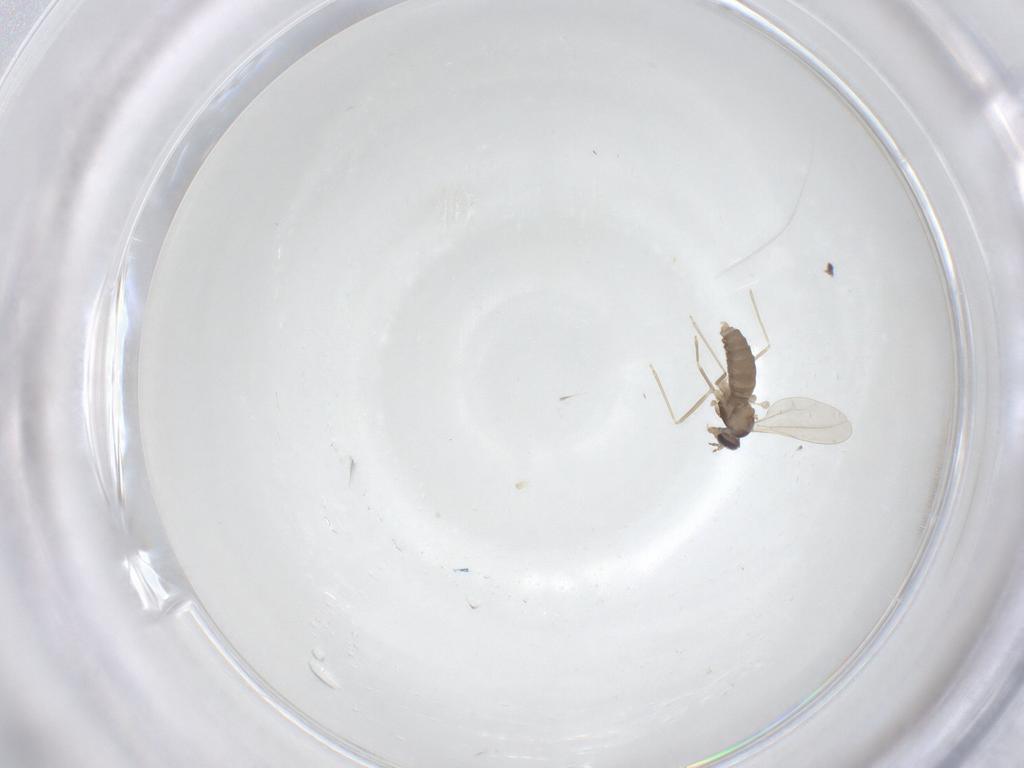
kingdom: Animalia
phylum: Arthropoda
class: Insecta
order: Diptera
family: Cecidomyiidae
